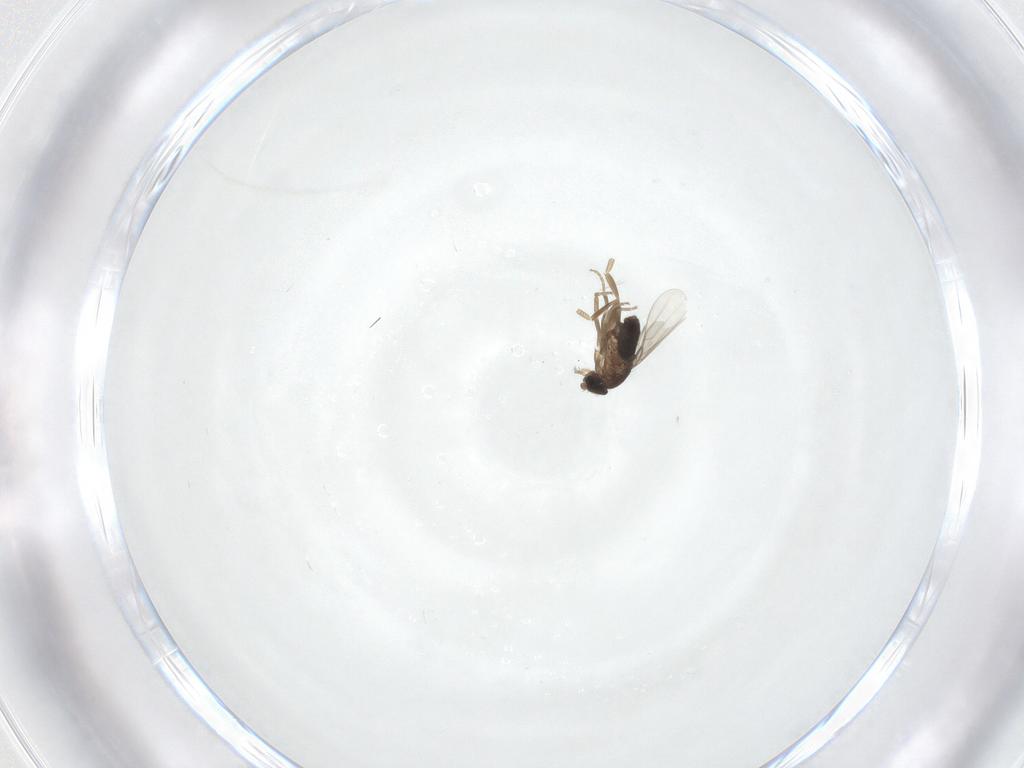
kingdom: Animalia
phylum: Arthropoda
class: Insecta
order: Diptera
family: Phoridae
